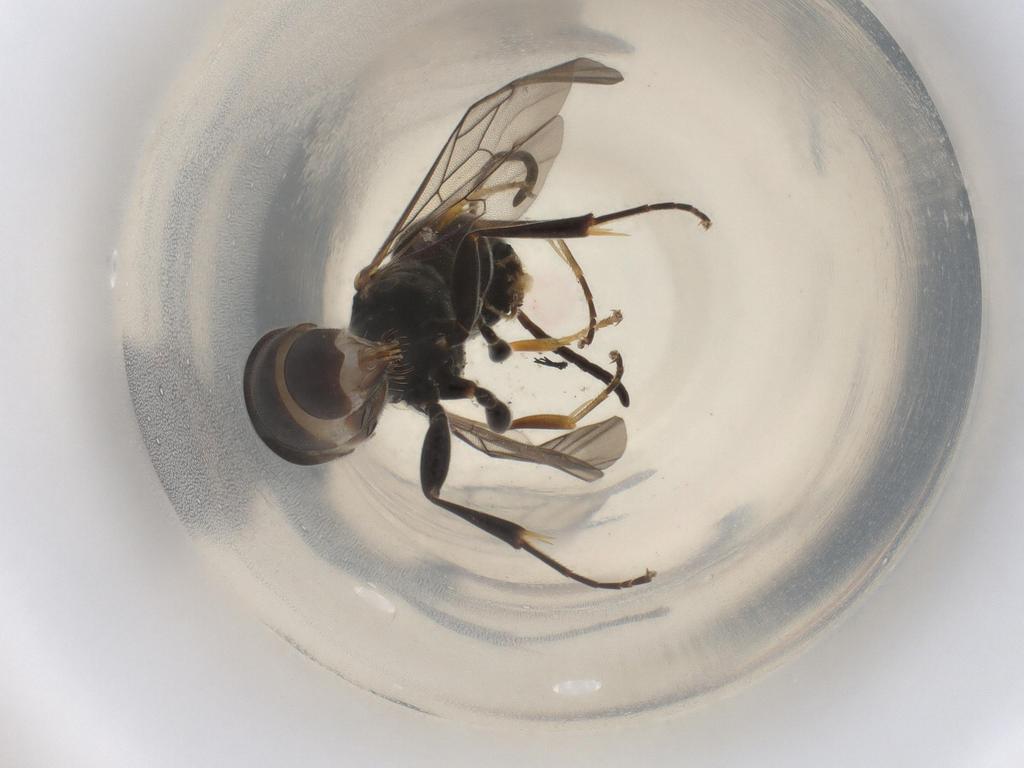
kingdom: Animalia
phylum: Arthropoda
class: Insecta
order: Hymenoptera
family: Formicidae
